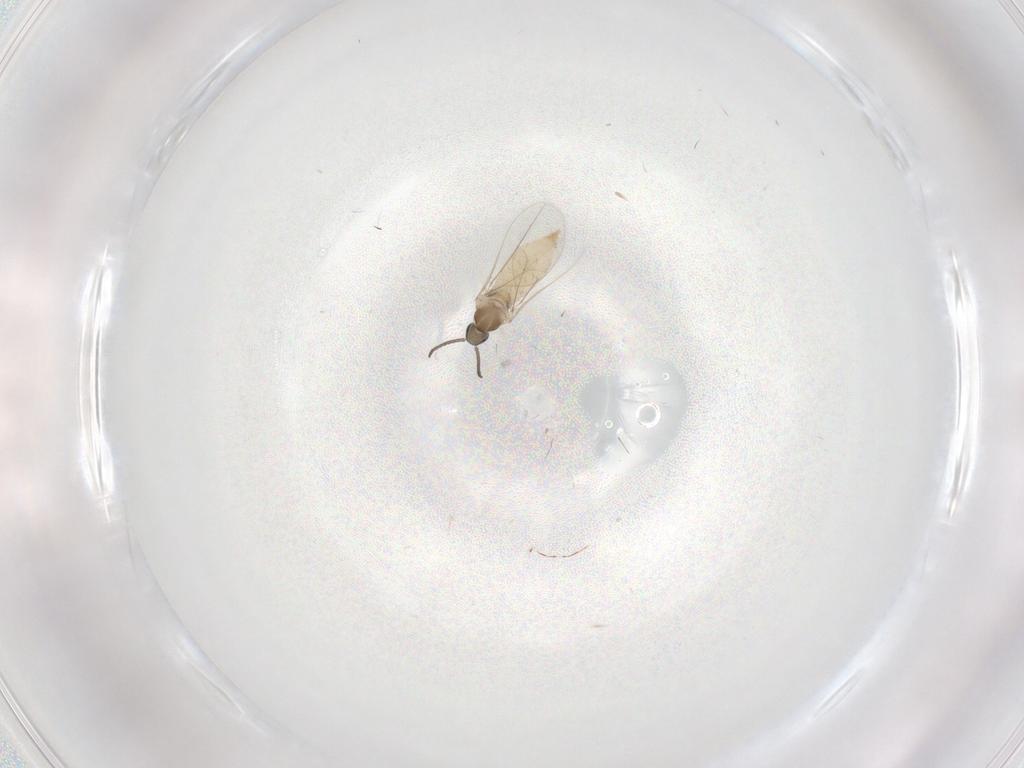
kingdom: Animalia
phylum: Arthropoda
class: Insecta
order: Diptera
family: Cecidomyiidae
